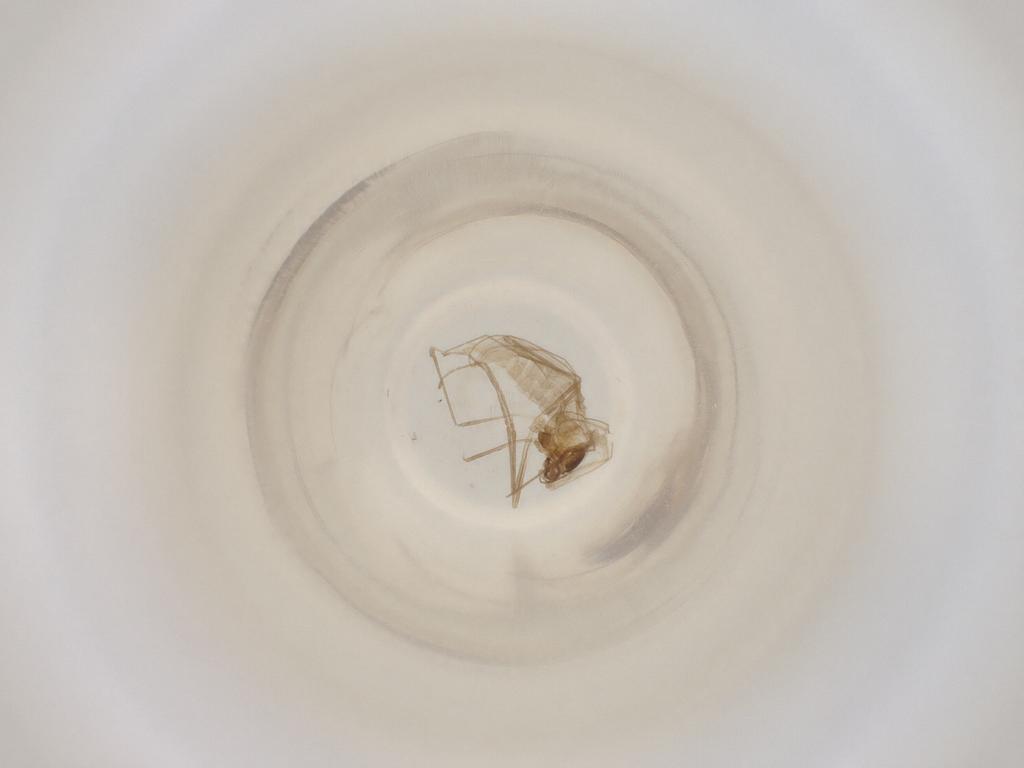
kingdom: Animalia
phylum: Arthropoda
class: Insecta
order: Diptera
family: Cecidomyiidae
